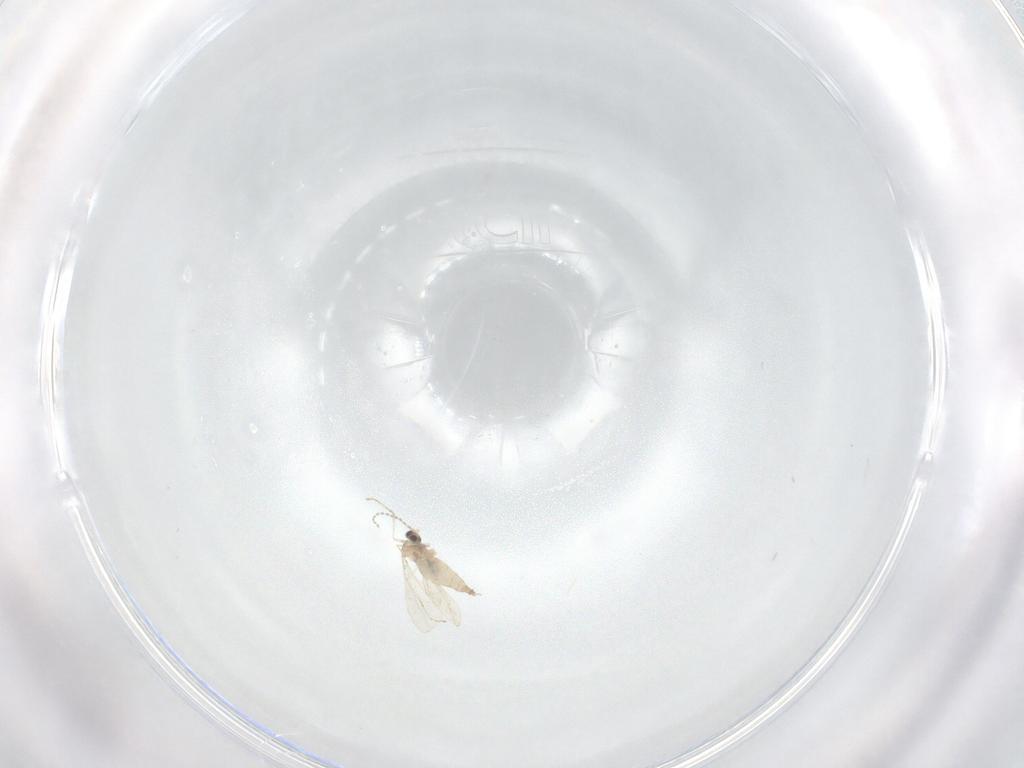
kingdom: Animalia
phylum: Arthropoda
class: Insecta
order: Diptera
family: Cecidomyiidae
